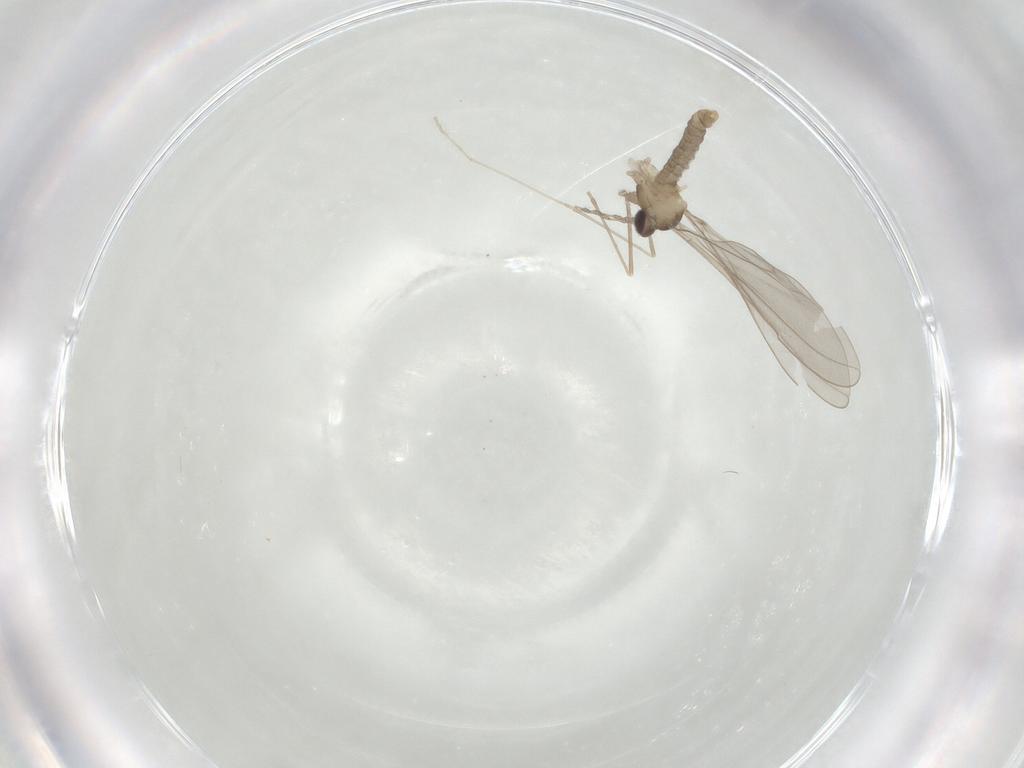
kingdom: Animalia
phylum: Arthropoda
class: Insecta
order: Diptera
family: Cecidomyiidae
